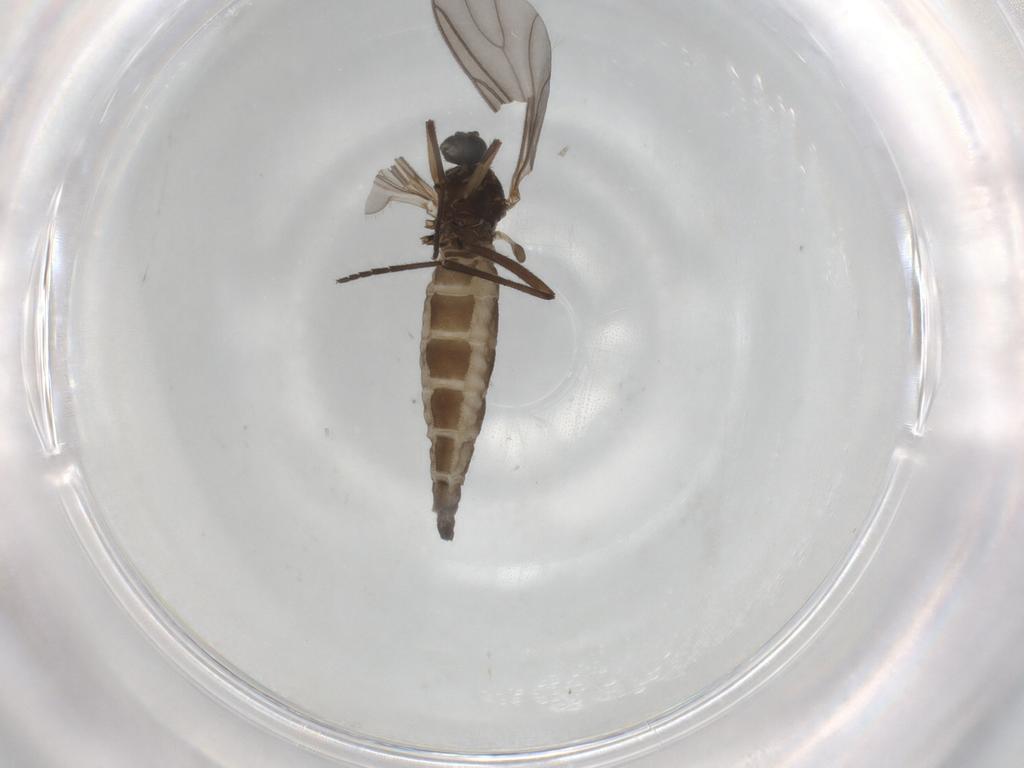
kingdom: Animalia
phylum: Arthropoda
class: Insecta
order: Diptera
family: Sciaridae
